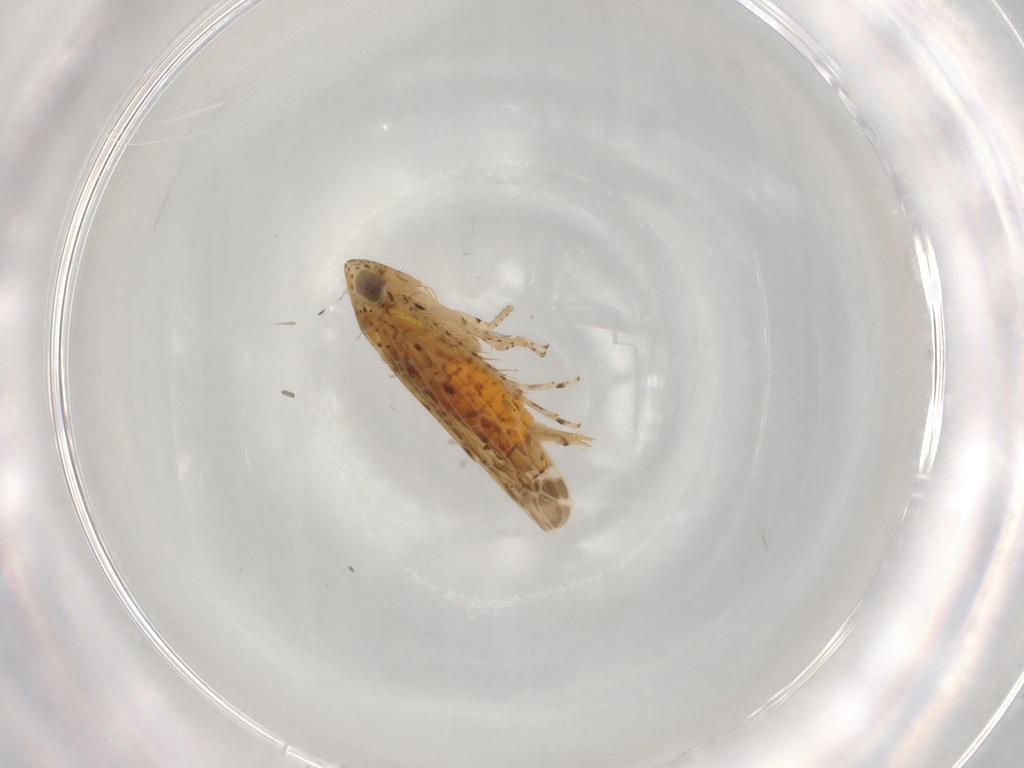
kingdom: Animalia
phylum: Arthropoda
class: Insecta
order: Hemiptera
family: Cicadellidae
